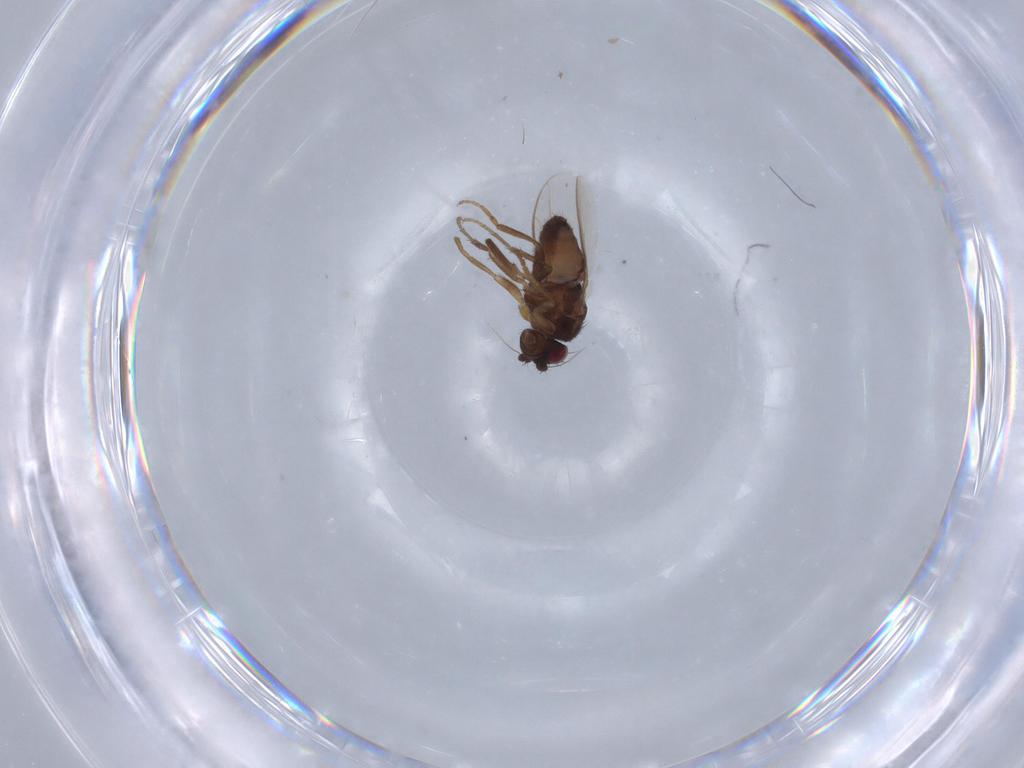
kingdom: Animalia
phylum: Arthropoda
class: Insecta
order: Diptera
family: Sphaeroceridae
